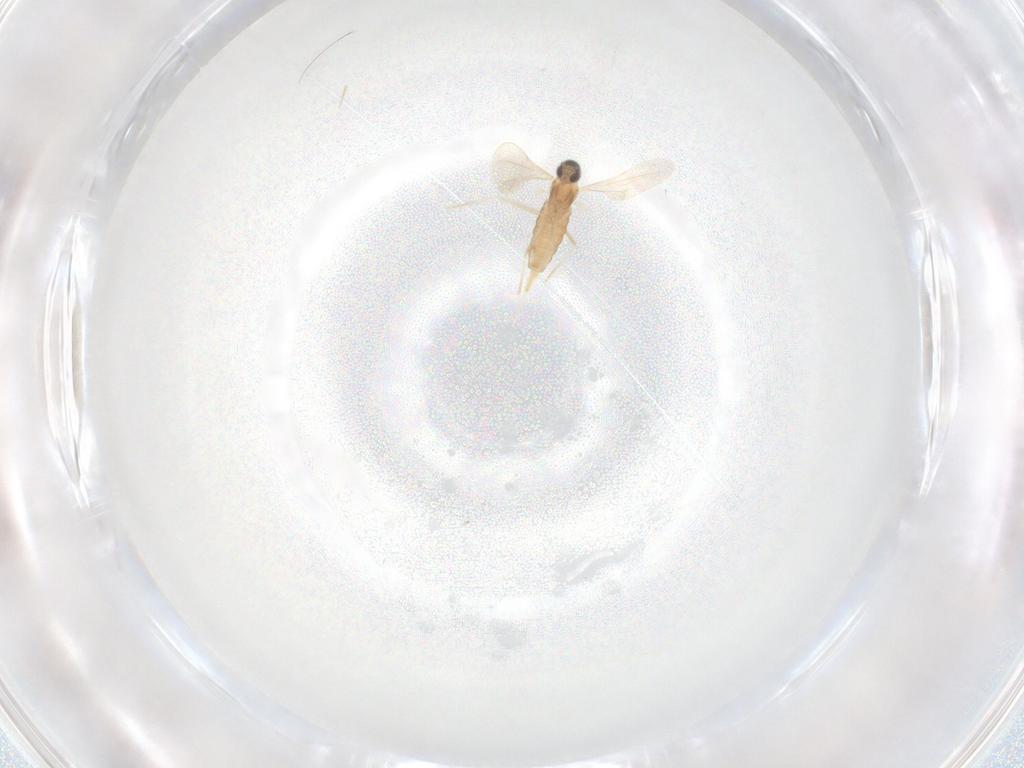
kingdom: Animalia
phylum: Arthropoda
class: Insecta
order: Diptera
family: Cecidomyiidae
